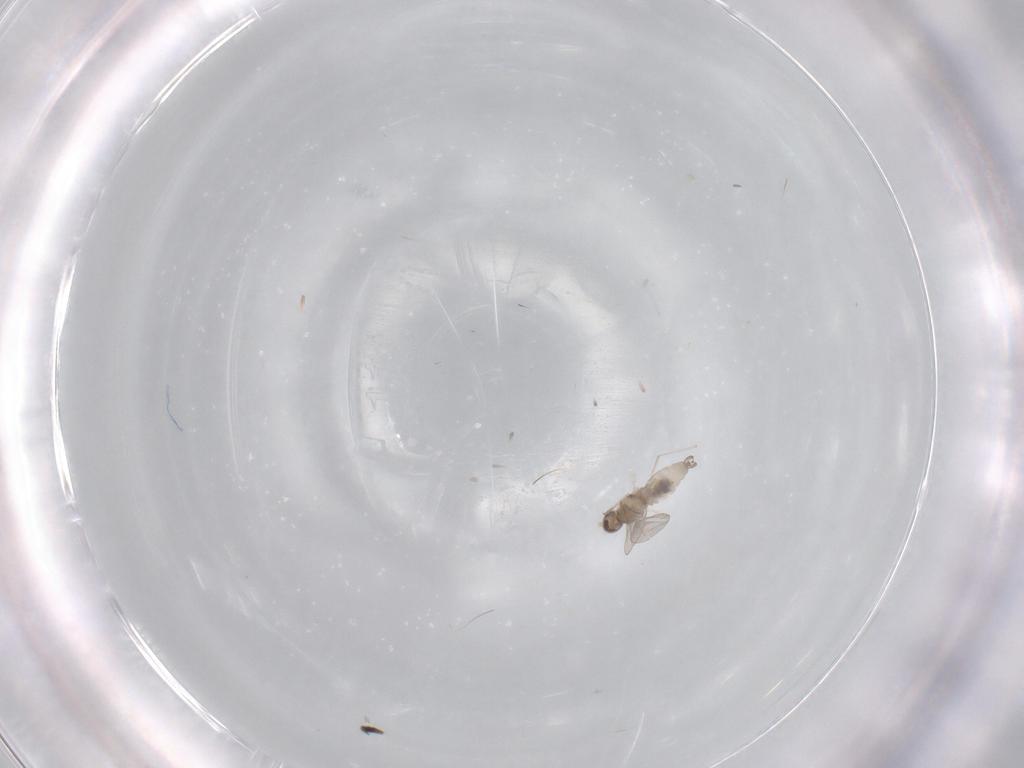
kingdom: Animalia
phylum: Arthropoda
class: Insecta
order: Diptera
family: Cecidomyiidae
